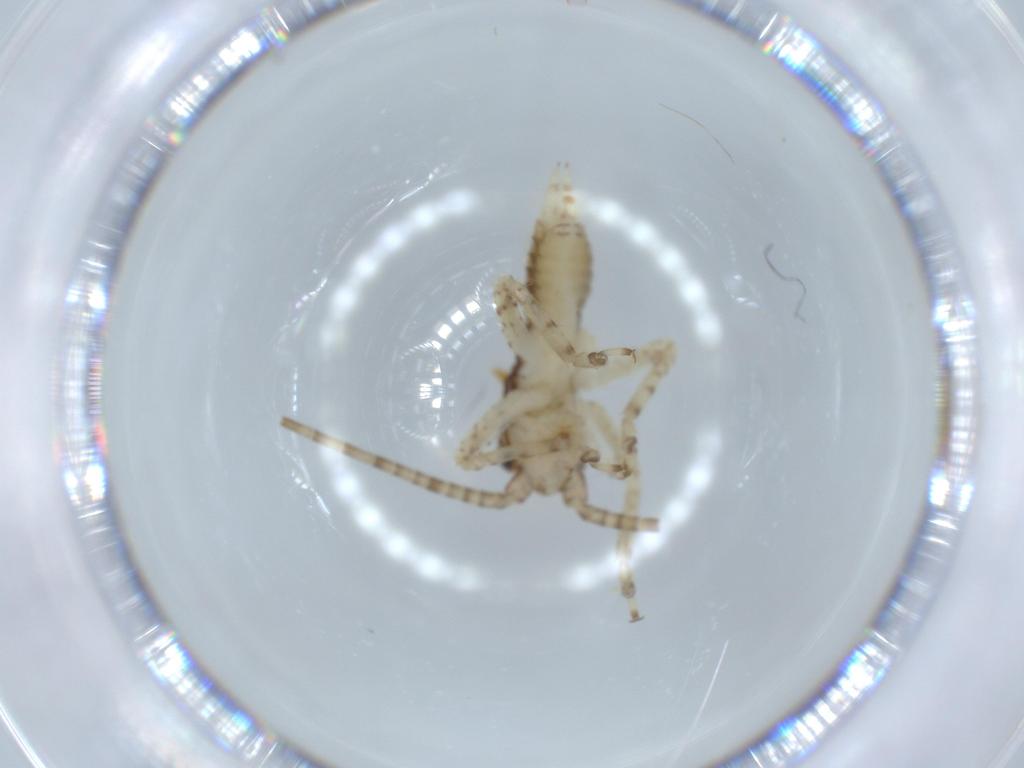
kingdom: Animalia
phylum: Arthropoda
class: Insecta
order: Orthoptera
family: Gryllidae
